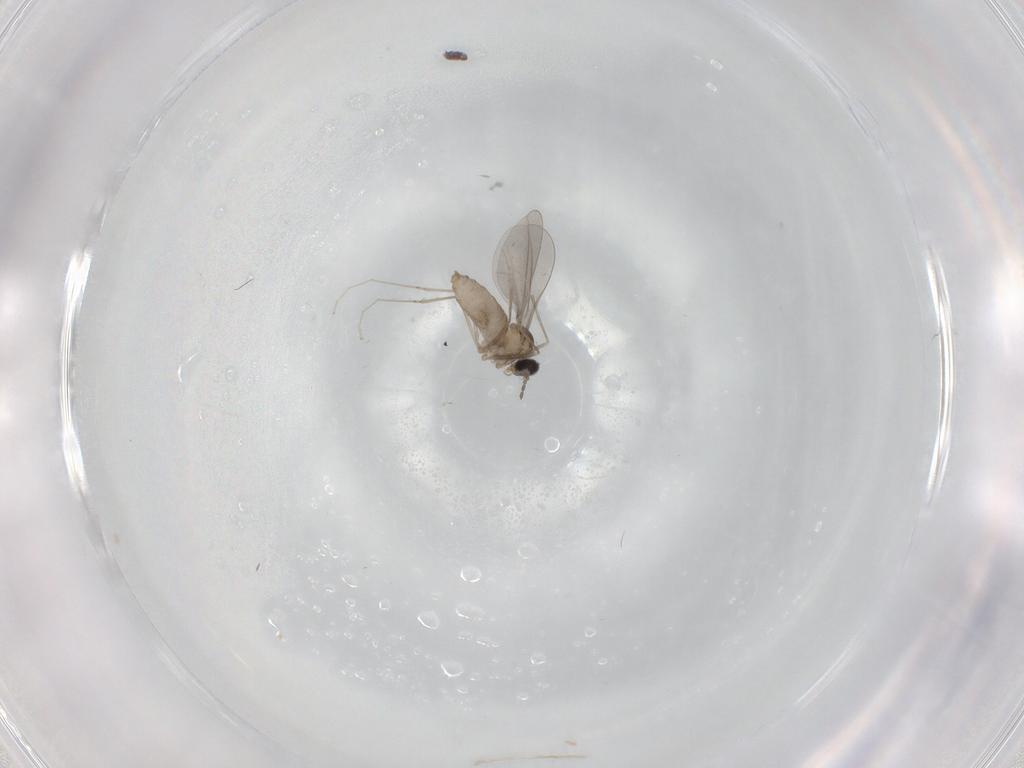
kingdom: Animalia
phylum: Arthropoda
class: Insecta
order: Diptera
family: Cecidomyiidae
